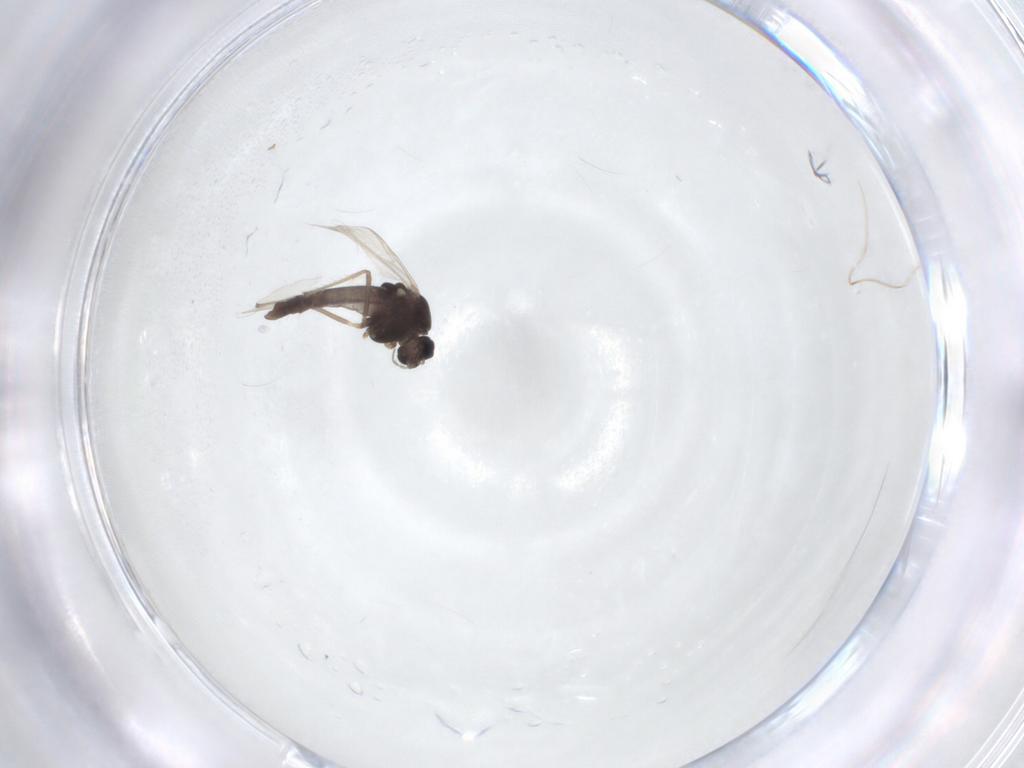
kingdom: Animalia
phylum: Arthropoda
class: Insecta
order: Diptera
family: Chironomidae
